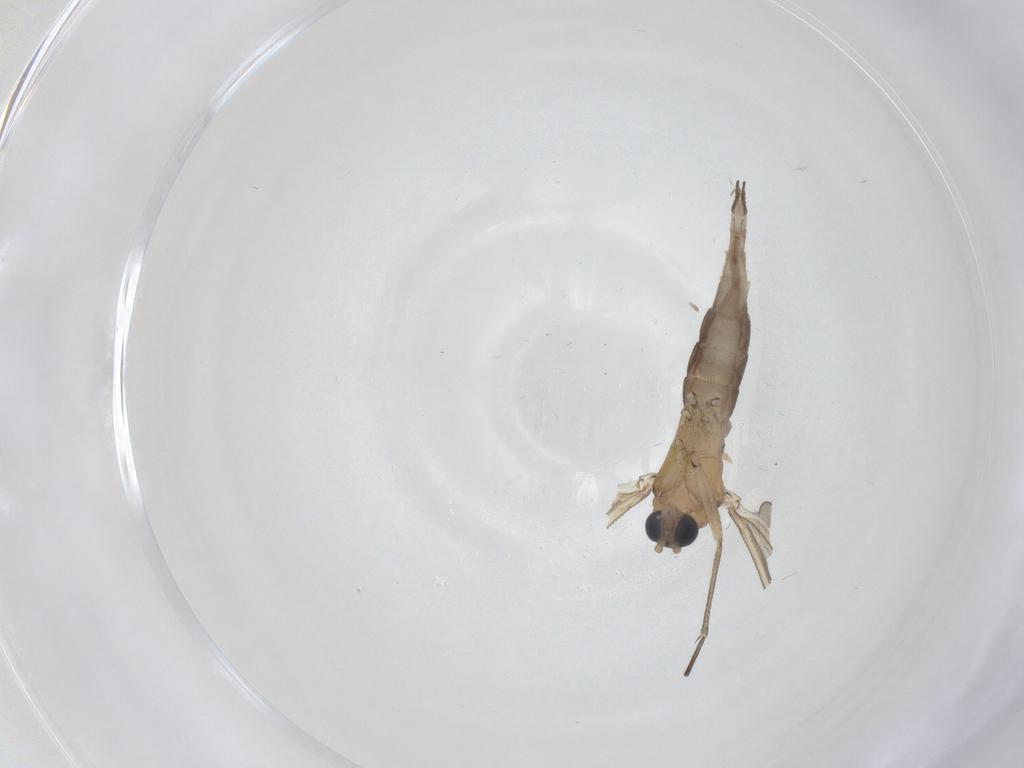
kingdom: Animalia
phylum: Arthropoda
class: Insecta
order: Diptera
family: Sciaridae
